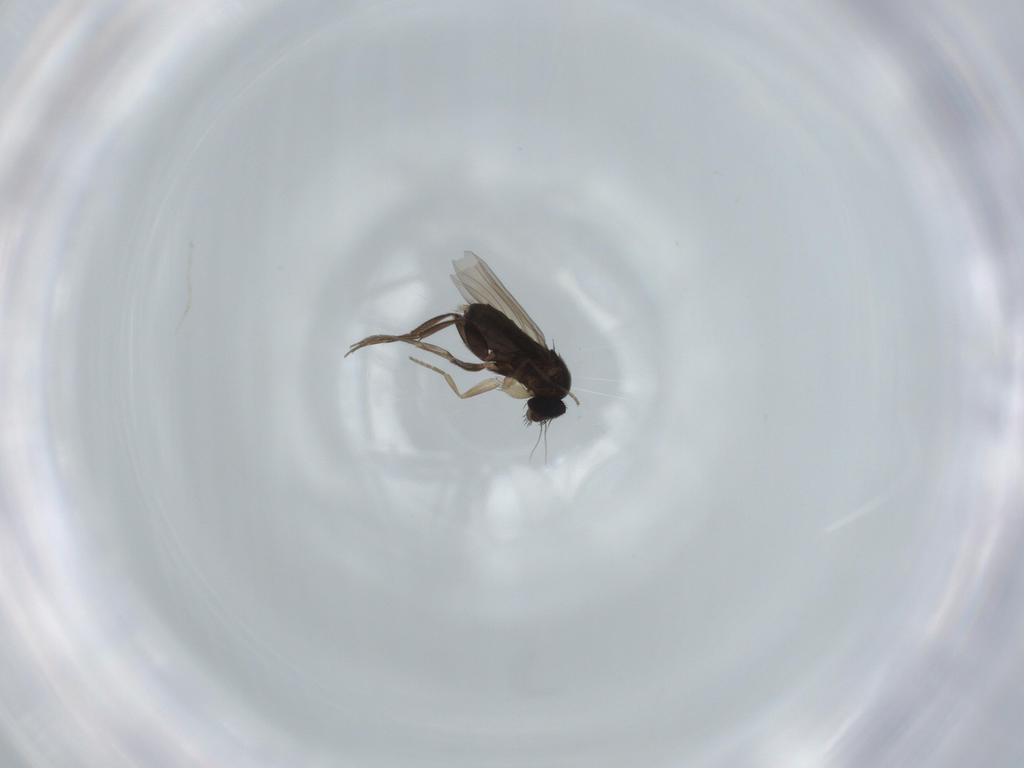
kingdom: Animalia
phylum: Arthropoda
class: Insecta
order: Diptera
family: Phoridae
